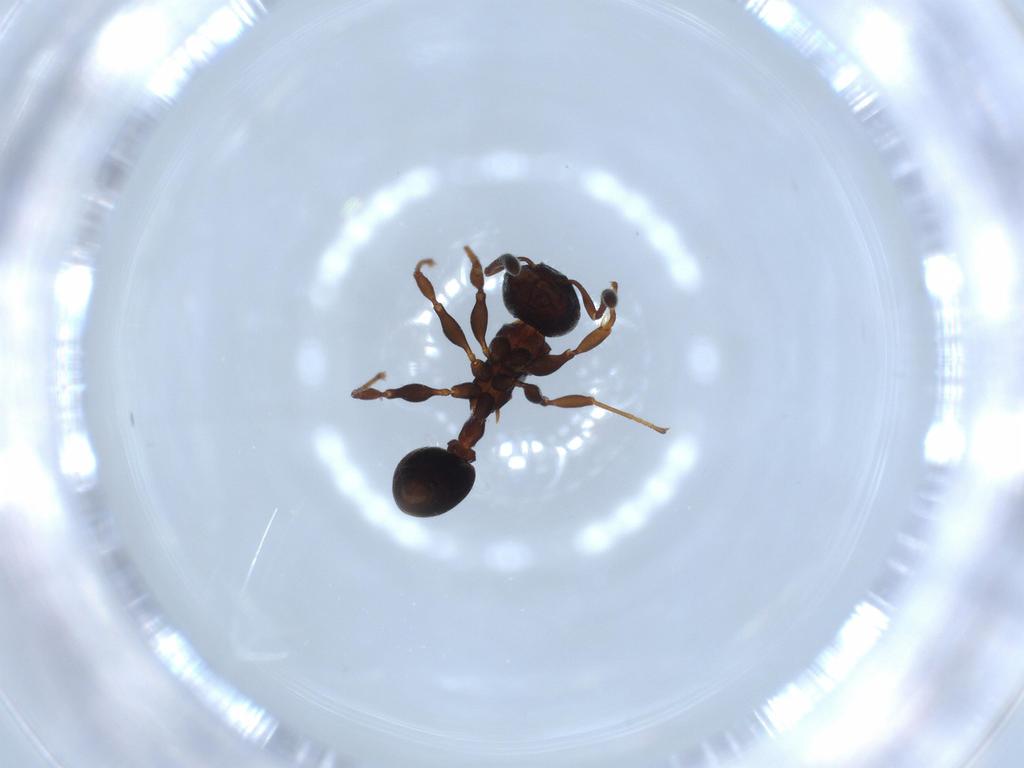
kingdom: Animalia
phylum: Arthropoda
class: Insecta
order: Hymenoptera
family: Formicidae
